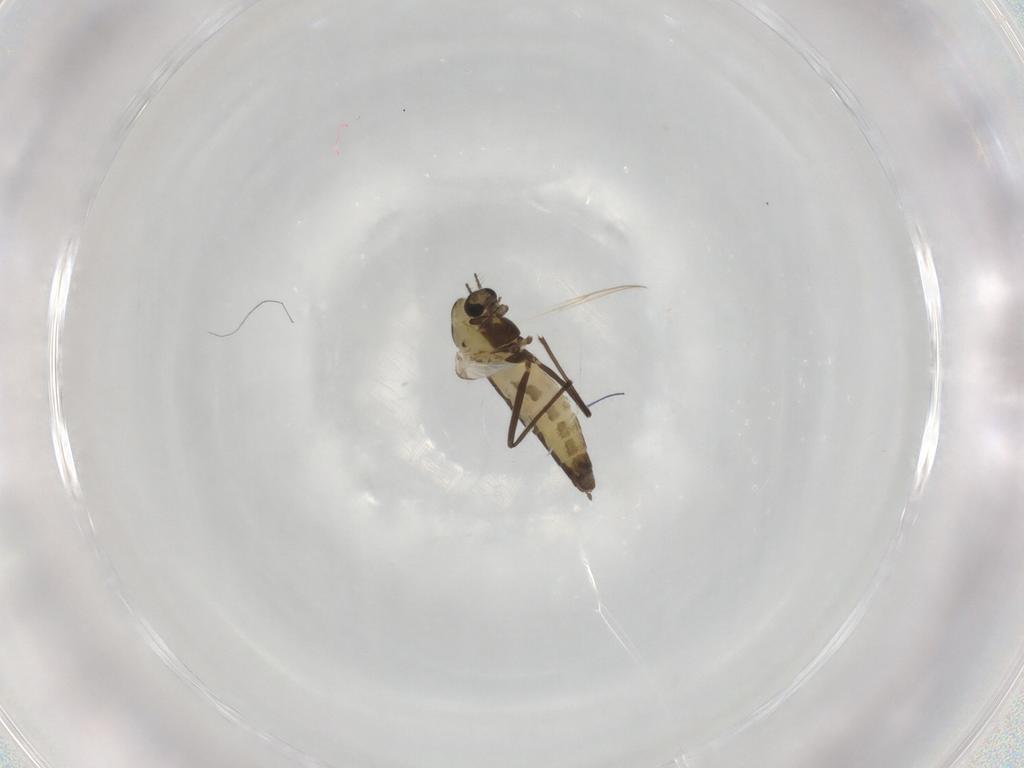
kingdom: Animalia
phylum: Arthropoda
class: Insecta
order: Diptera
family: Chironomidae
